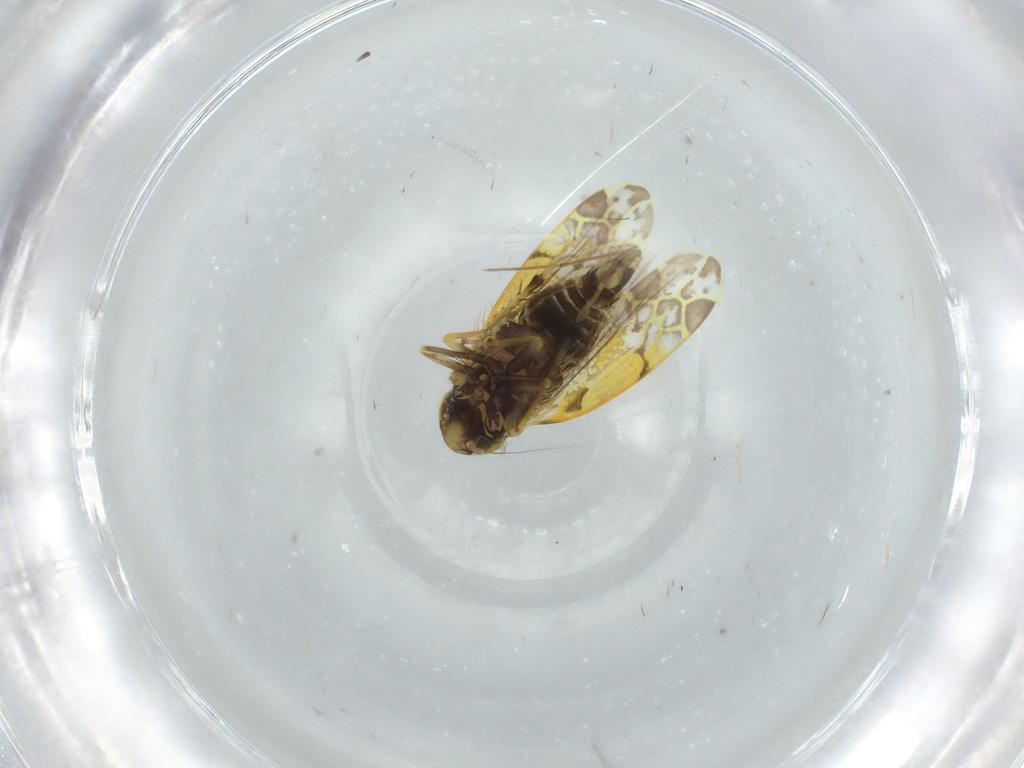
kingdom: Animalia
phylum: Arthropoda
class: Insecta
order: Hemiptera
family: Cicadellidae
